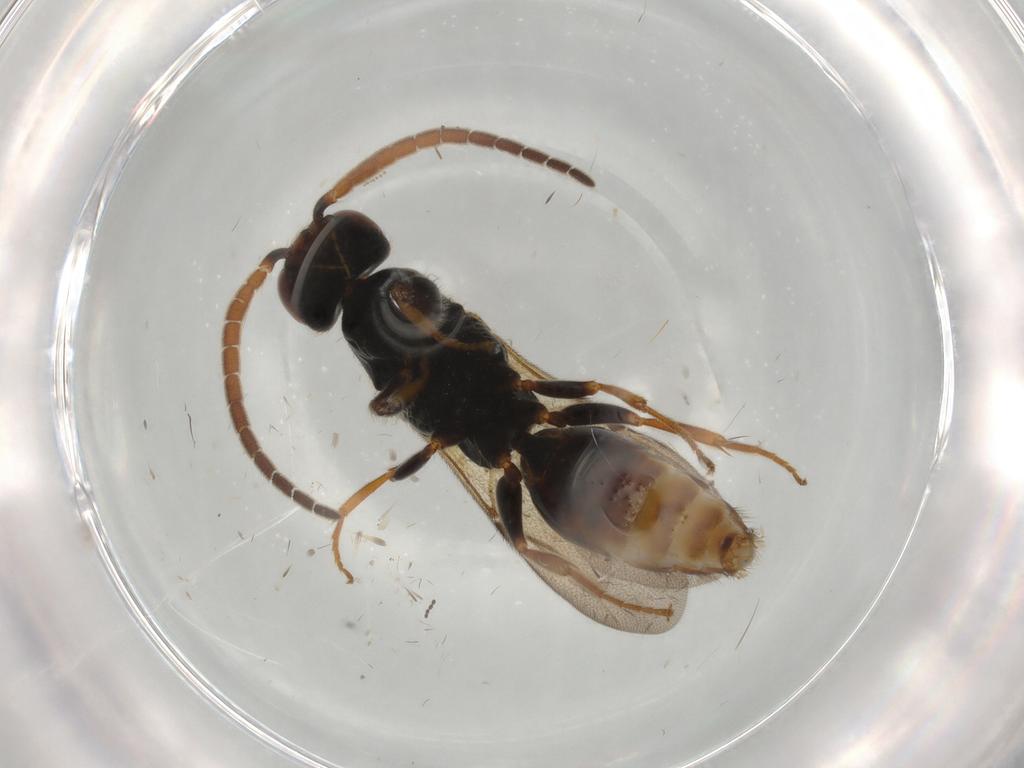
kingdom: Animalia
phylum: Arthropoda
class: Insecta
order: Hymenoptera
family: Bethylidae
